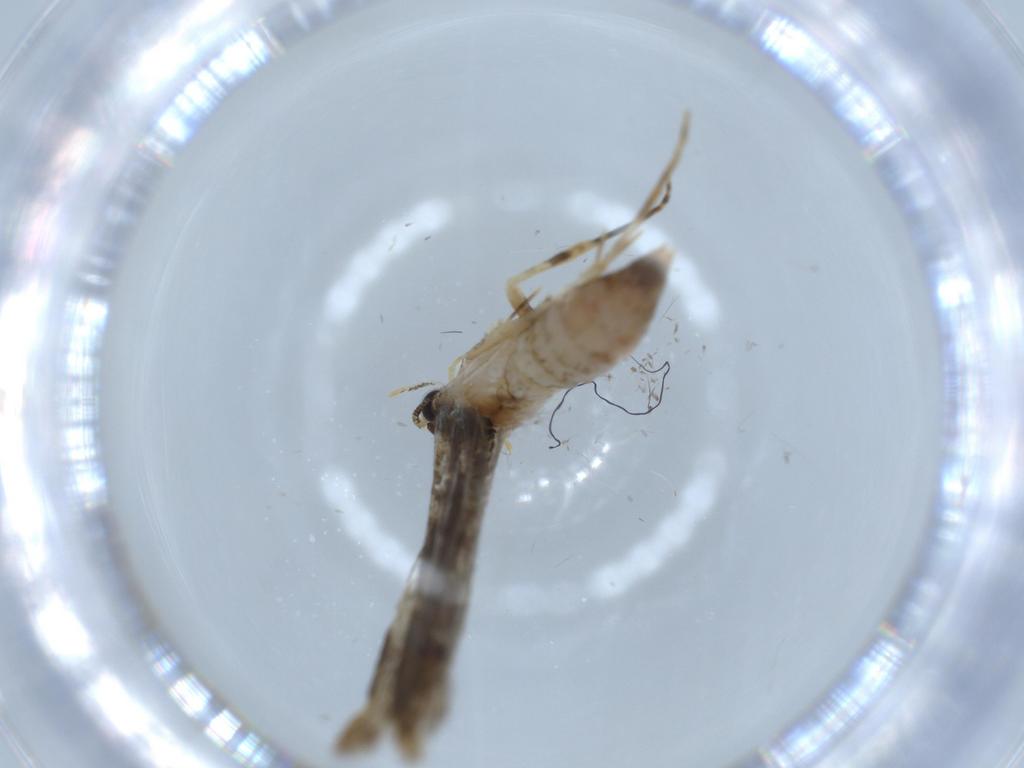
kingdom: Animalia
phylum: Arthropoda
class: Insecta
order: Lepidoptera
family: Tineidae
